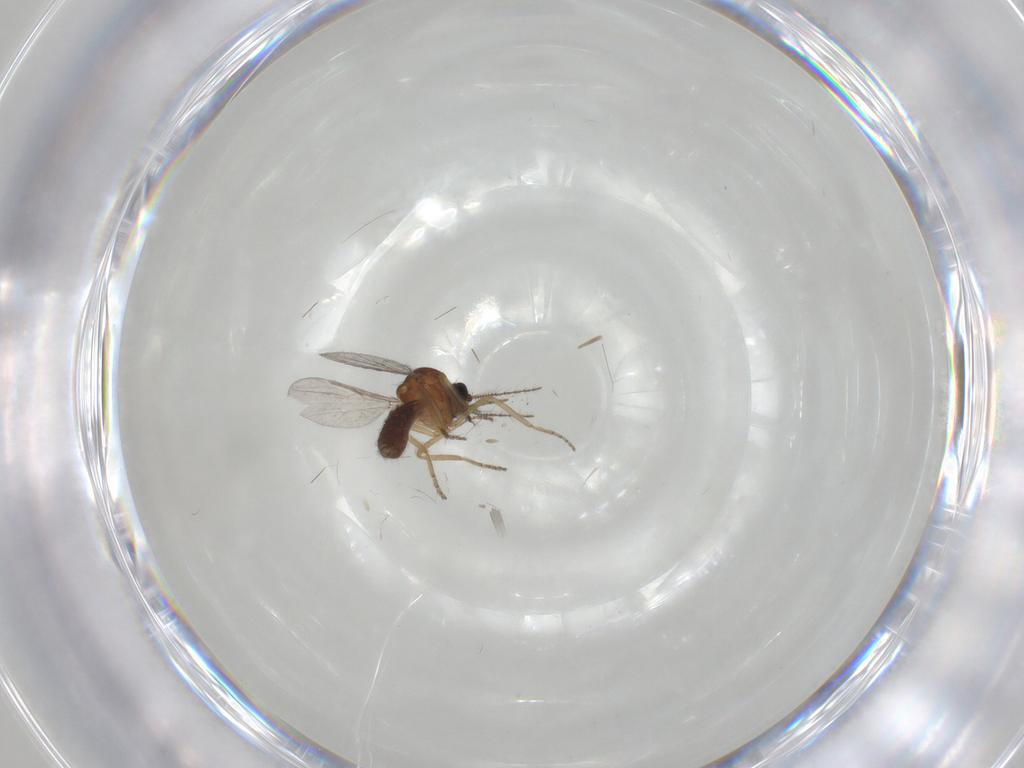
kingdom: Animalia
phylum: Arthropoda
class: Insecta
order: Diptera
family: Ceratopogonidae
